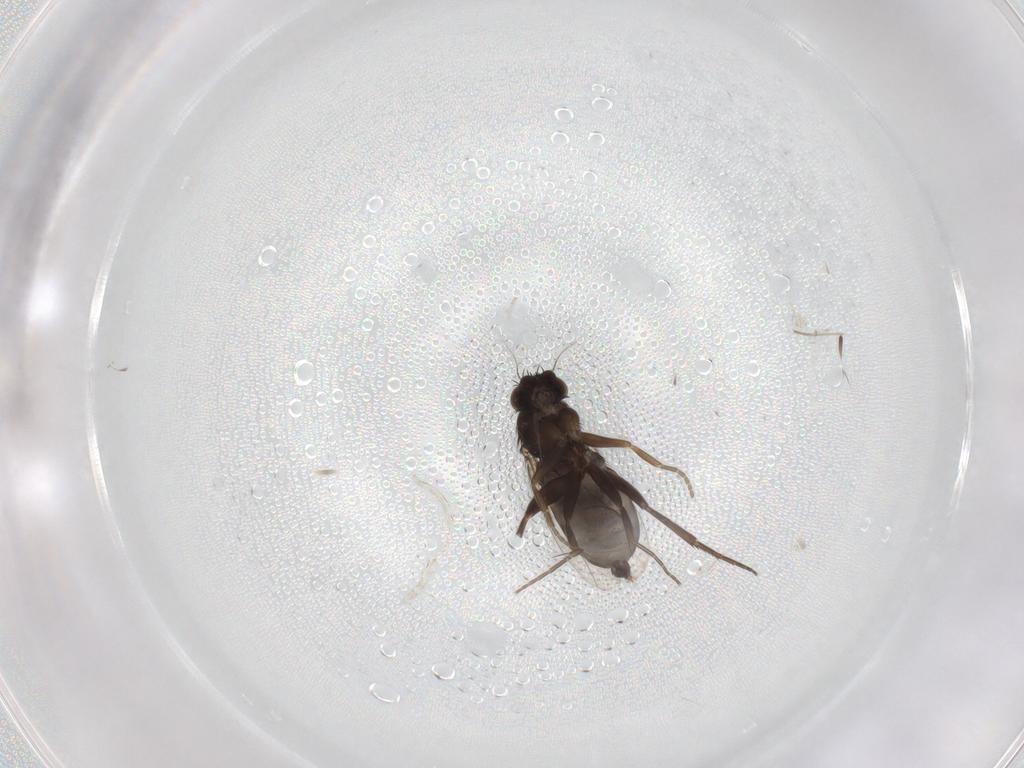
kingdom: Animalia
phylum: Arthropoda
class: Insecta
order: Diptera
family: Phoridae
